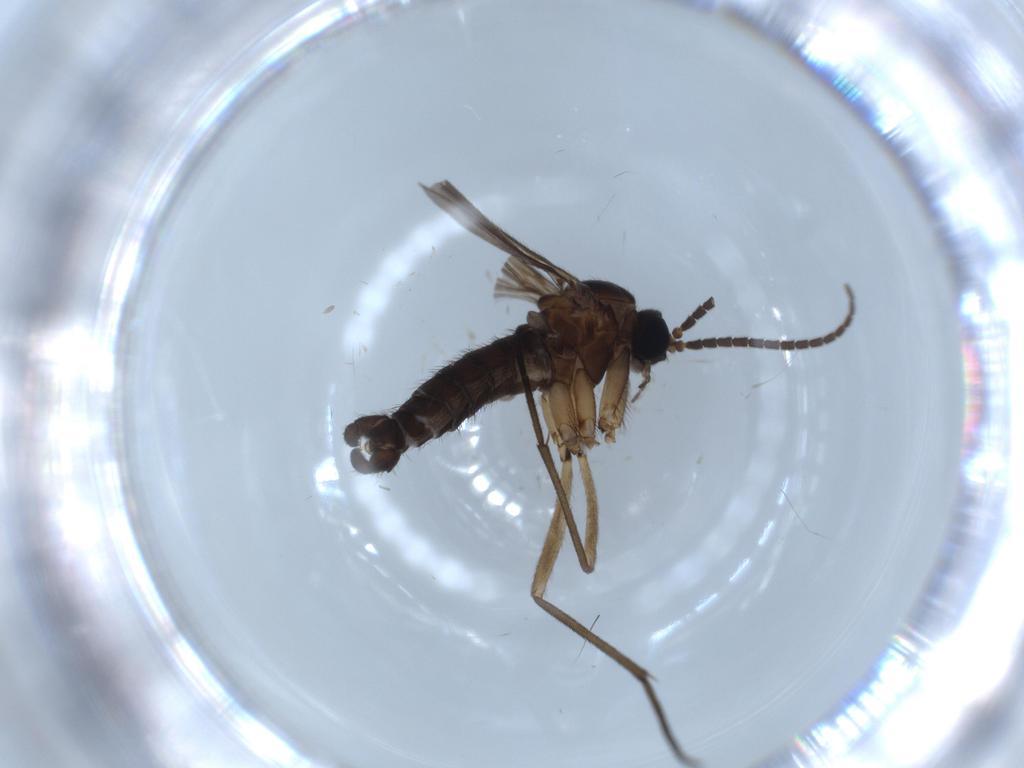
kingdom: Animalia
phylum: Arthropoda
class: Insecta
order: Diptera
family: Sciaridae
